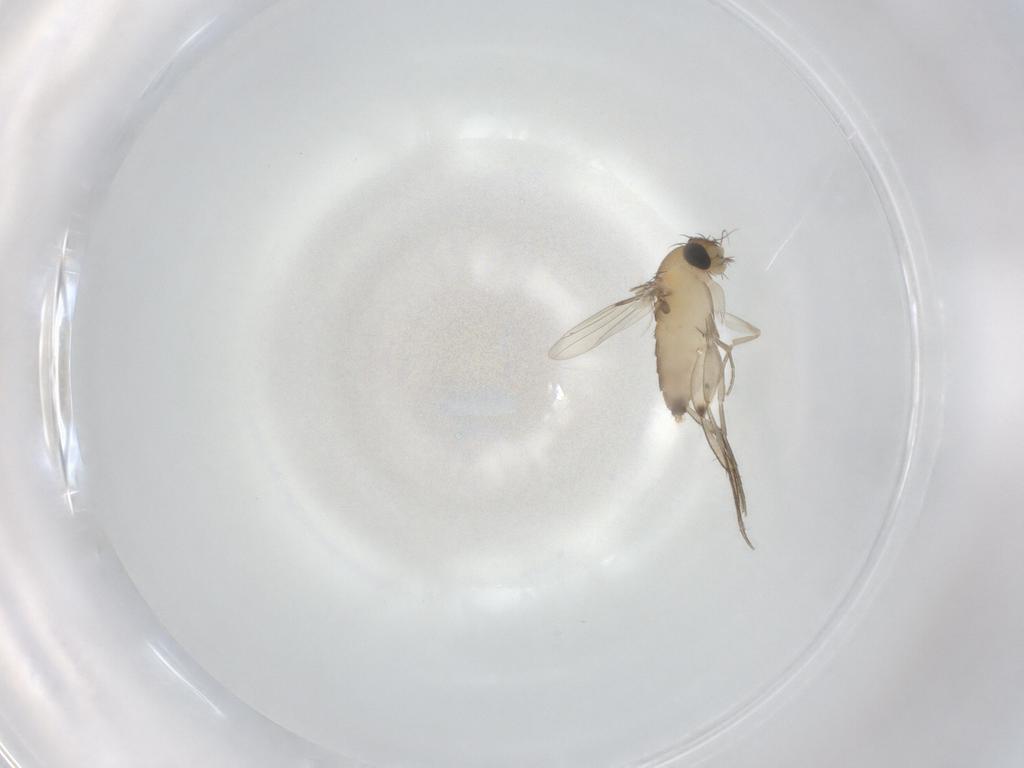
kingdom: Animalia
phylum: Arthropoda
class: Insecta
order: Diptera
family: Phoridae
